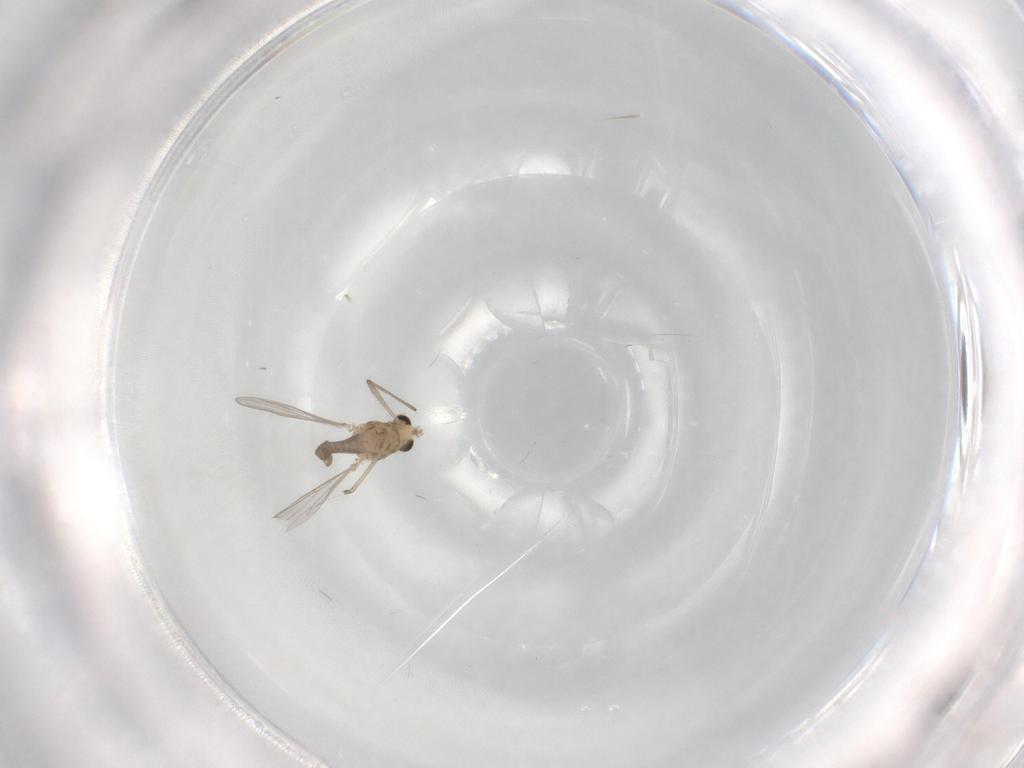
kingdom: Animalia
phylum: Arthropoda
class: Insecta
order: Diptera
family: Chironomidae
